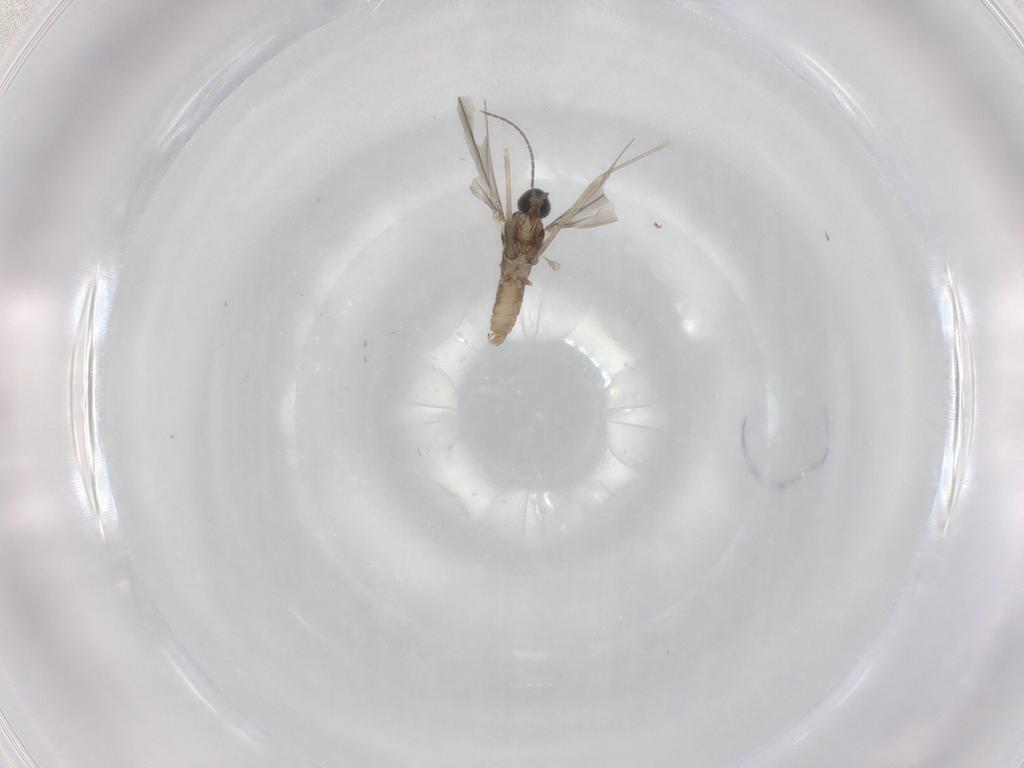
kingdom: Animalia
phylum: Arthropoda
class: Insecta
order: Diptera
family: Cecidomyiidae
